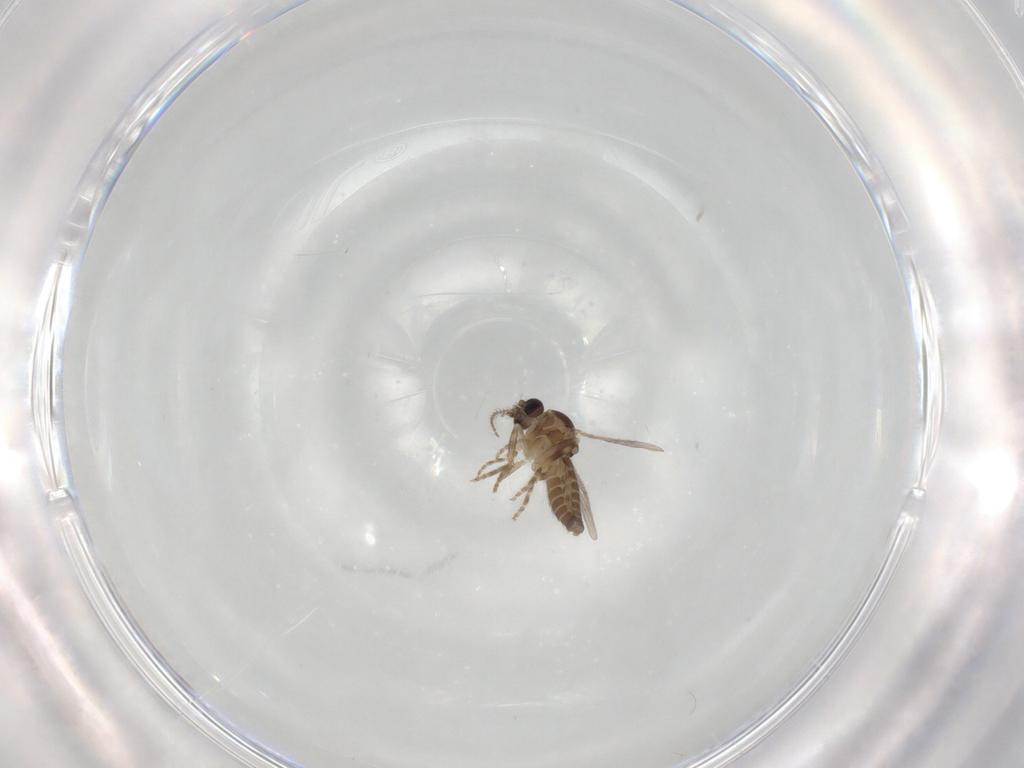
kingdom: Animalia
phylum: Arthropoda
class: Insecta
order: Diptera
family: Ceratopogonidae
